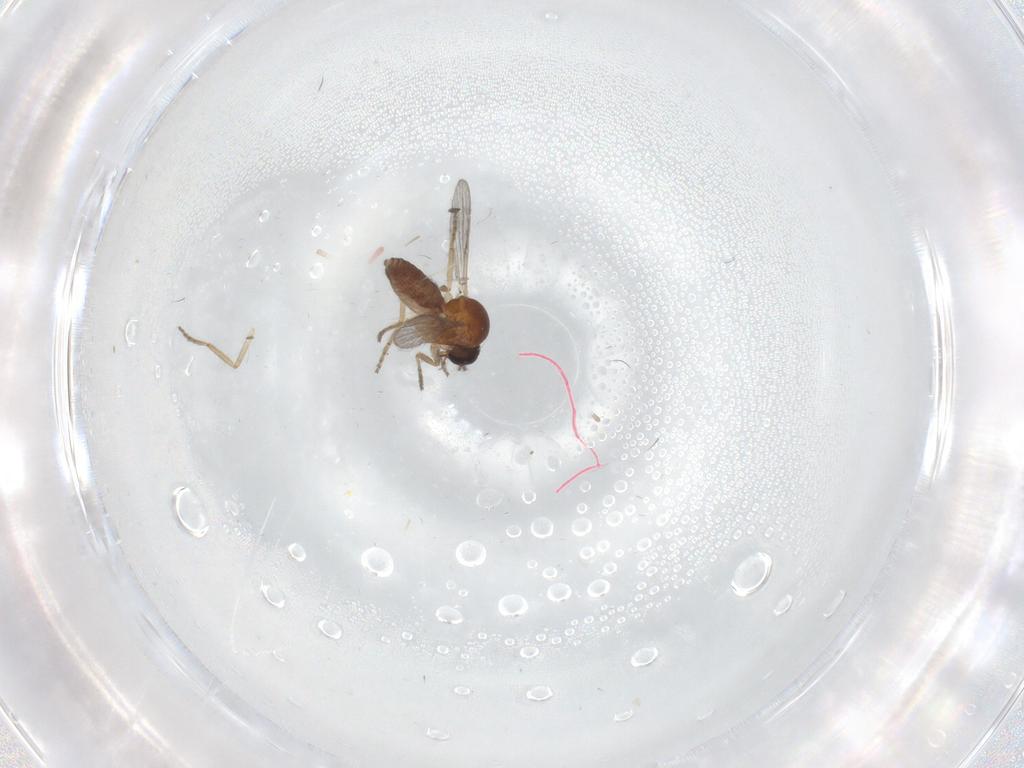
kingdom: Animalia
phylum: Arthropoda
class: Insecta
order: Diptera
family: Ceratopogonidae
